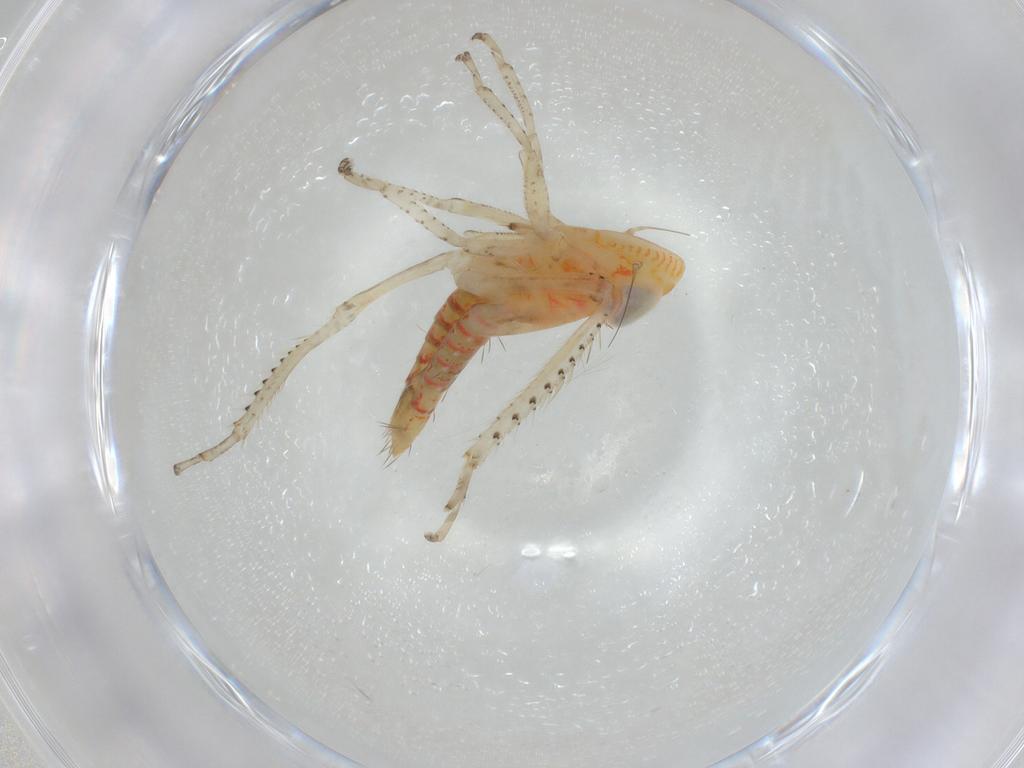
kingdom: Animalia
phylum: Arthropoda
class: Insecta
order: Hemiptera
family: Cicadellidae
